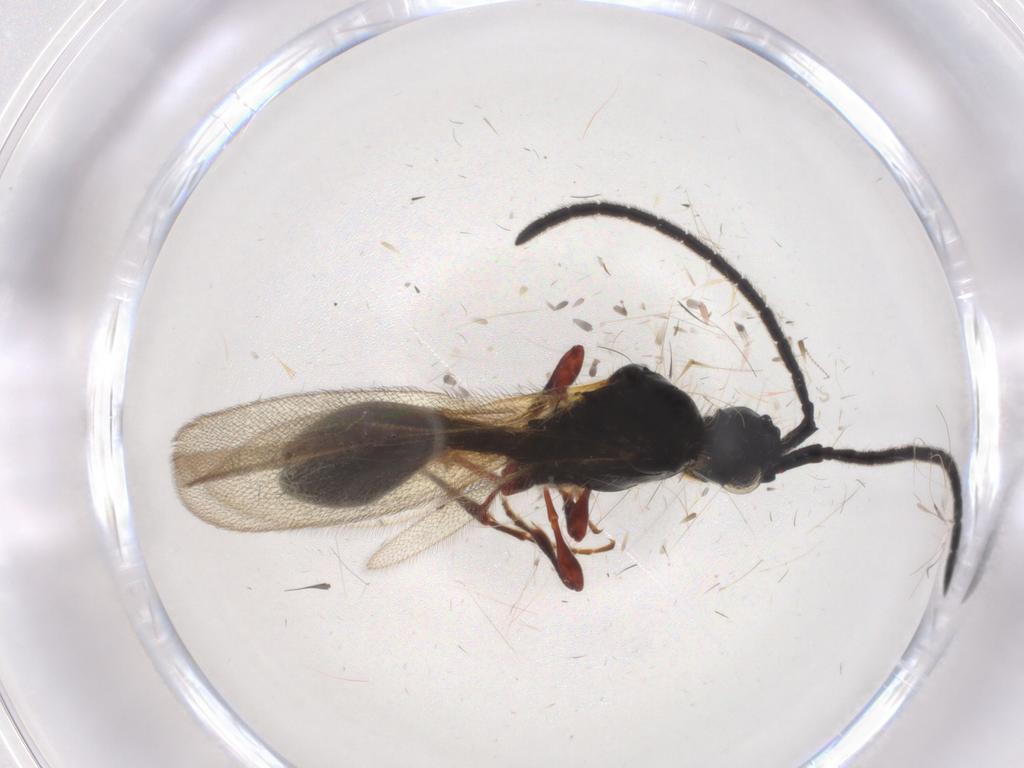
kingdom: Animalia
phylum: Arthropoda
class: Insecta
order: Hymenoptera
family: Diapriidae
